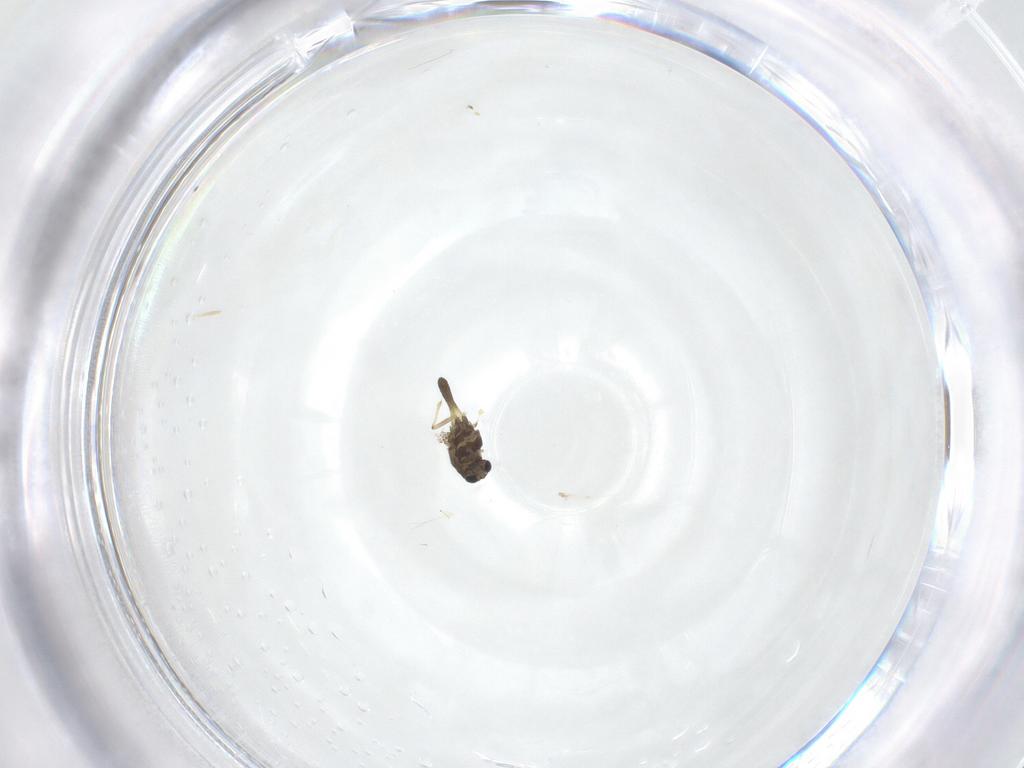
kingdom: Animalia
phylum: Arthropoda
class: Insecta
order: Diptera
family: Chironomidae
